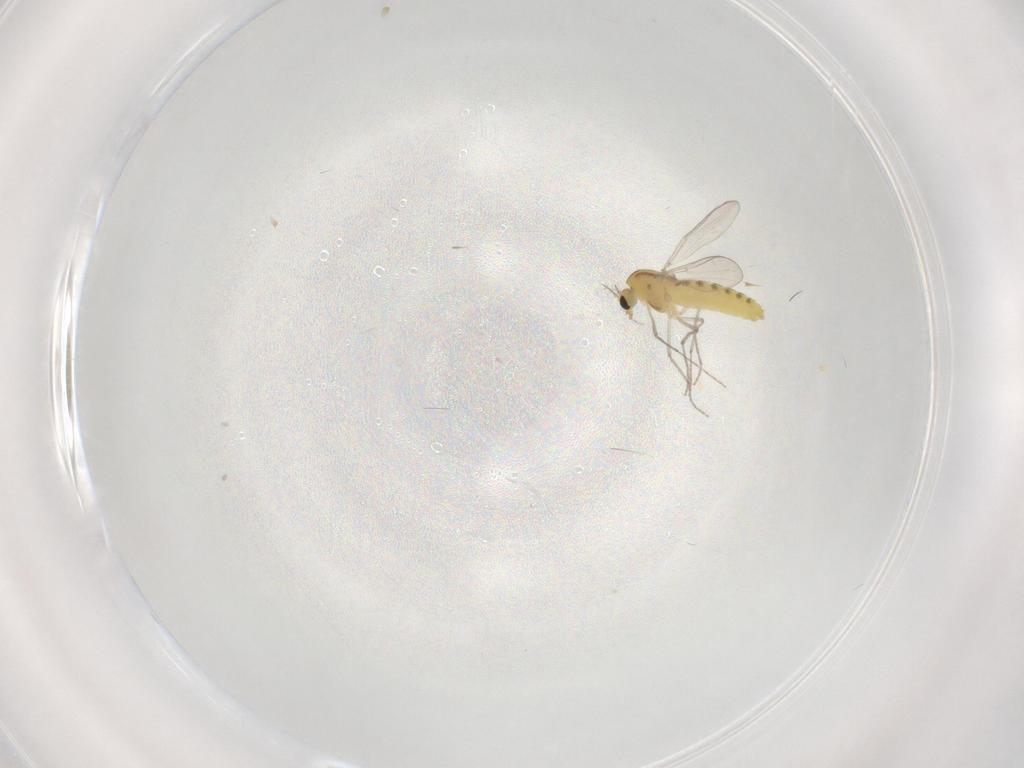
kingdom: Animalia
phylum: Arthropoda
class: Insecta
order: Diptera
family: Chironomidae
